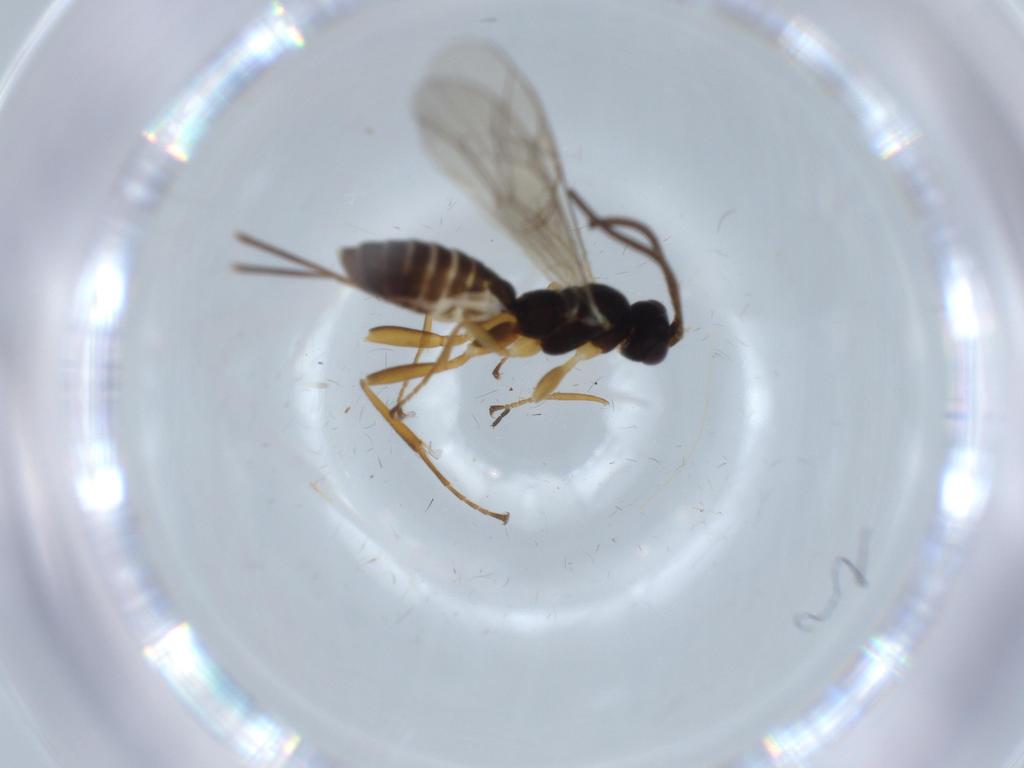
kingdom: Animalia
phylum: Arthropoda
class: Insecta
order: Hymenoptera
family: Ichneumonidae
